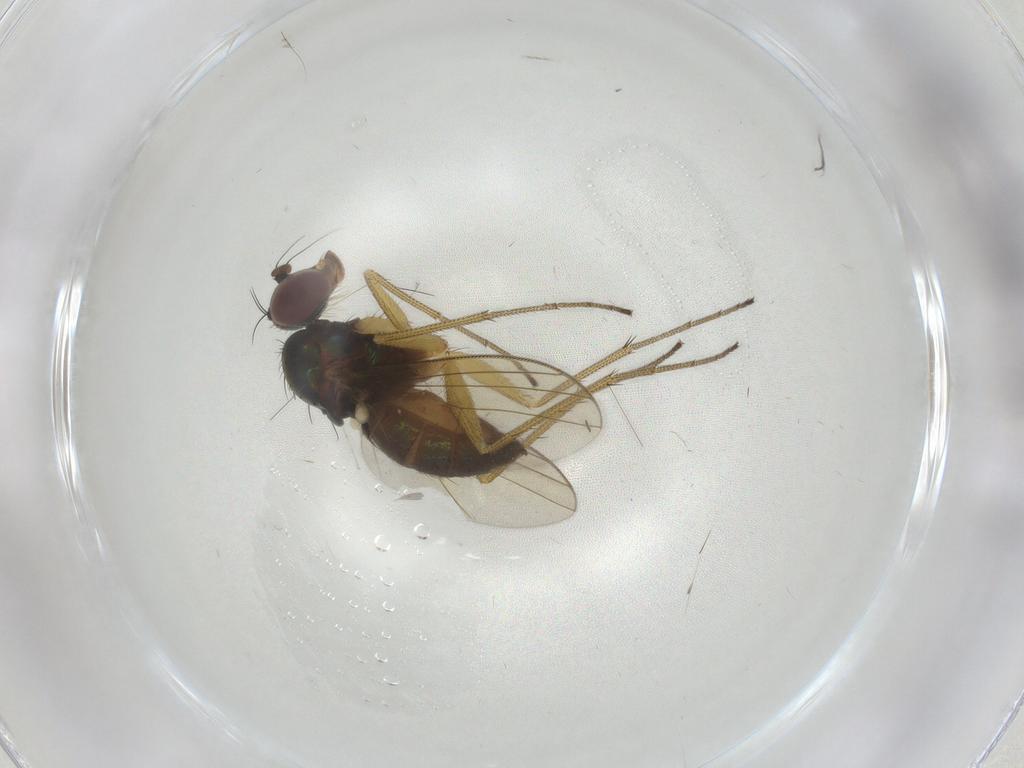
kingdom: Animalia
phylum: Arthropoda
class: Insecta
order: Diptera
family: Dolichopodidae
